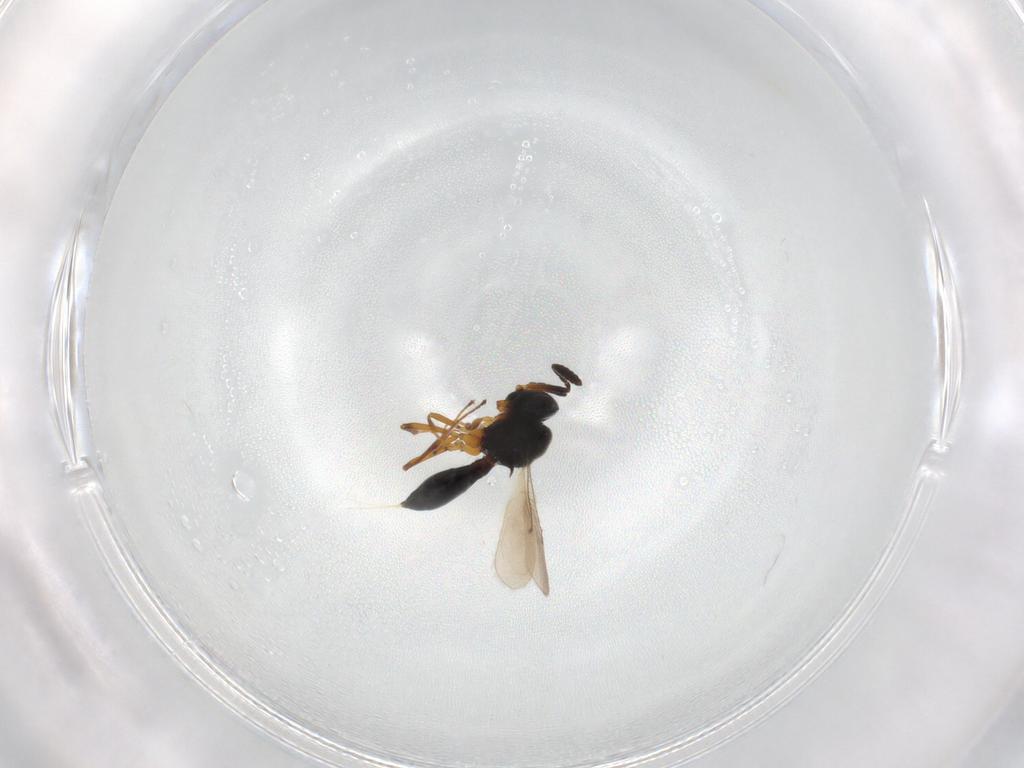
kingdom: Animalia
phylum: Arthropoda
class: Insecta
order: Hymenoptera
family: Scelionidae
